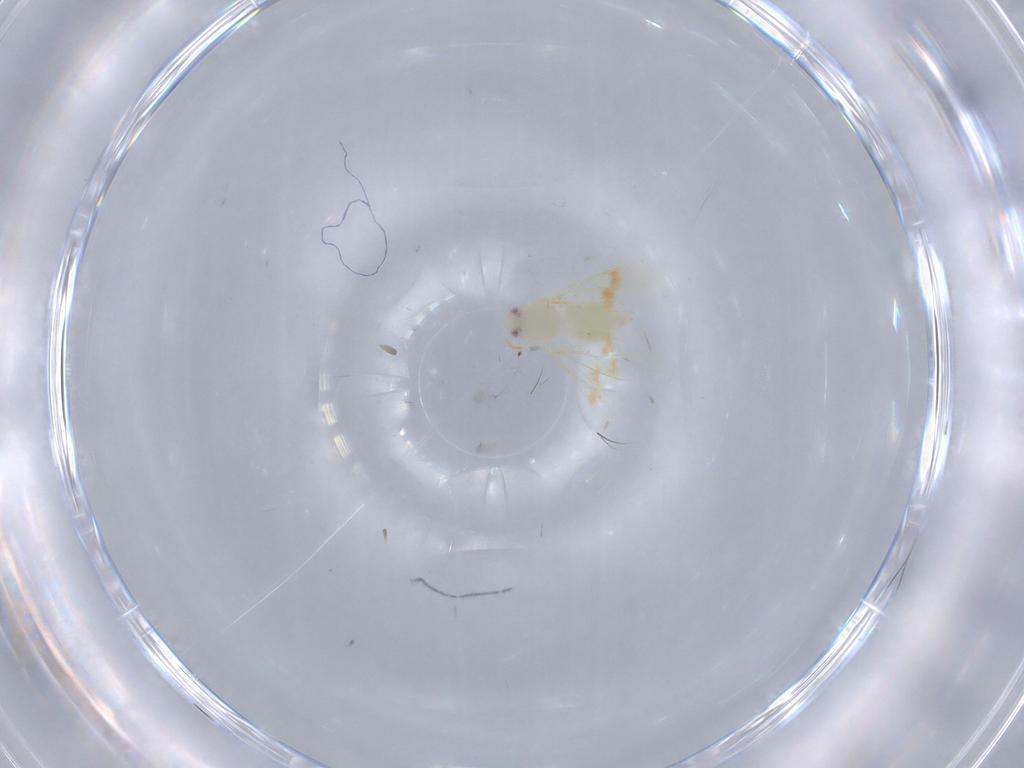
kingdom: Animalia
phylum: Arthropoda
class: Insecta
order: Hemiptera
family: Aleyrodidae
